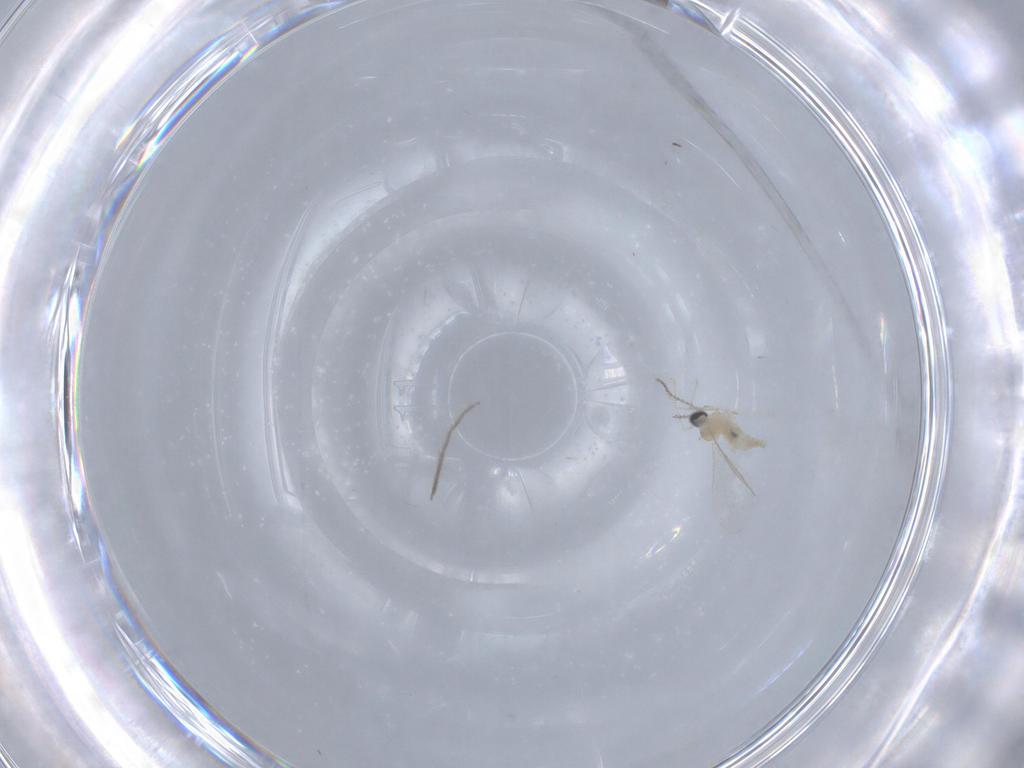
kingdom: Animalia
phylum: Arthropoda
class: Insecta
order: Diptera
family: Cecidomyiidae
